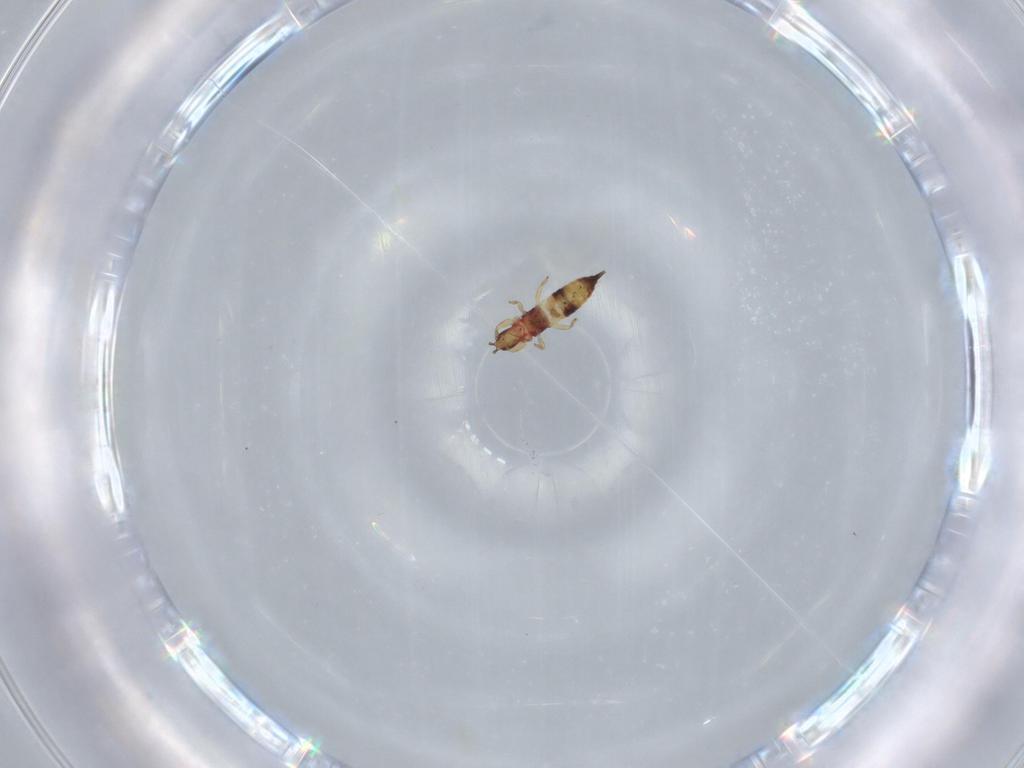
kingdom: Animalia
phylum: Arthropoda
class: Insecta
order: Thysanoptera
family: Phlaeothripidae
